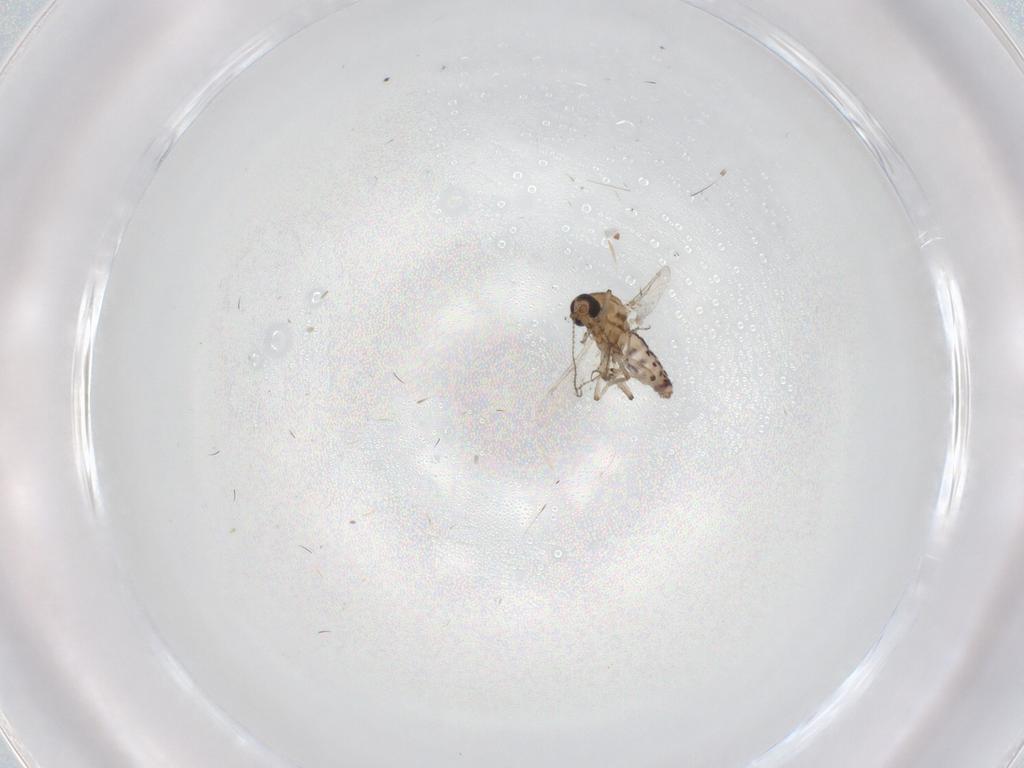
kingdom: Animalia
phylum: Arthropoda
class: Insecta
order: Diptera
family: Ceratopogonidae
